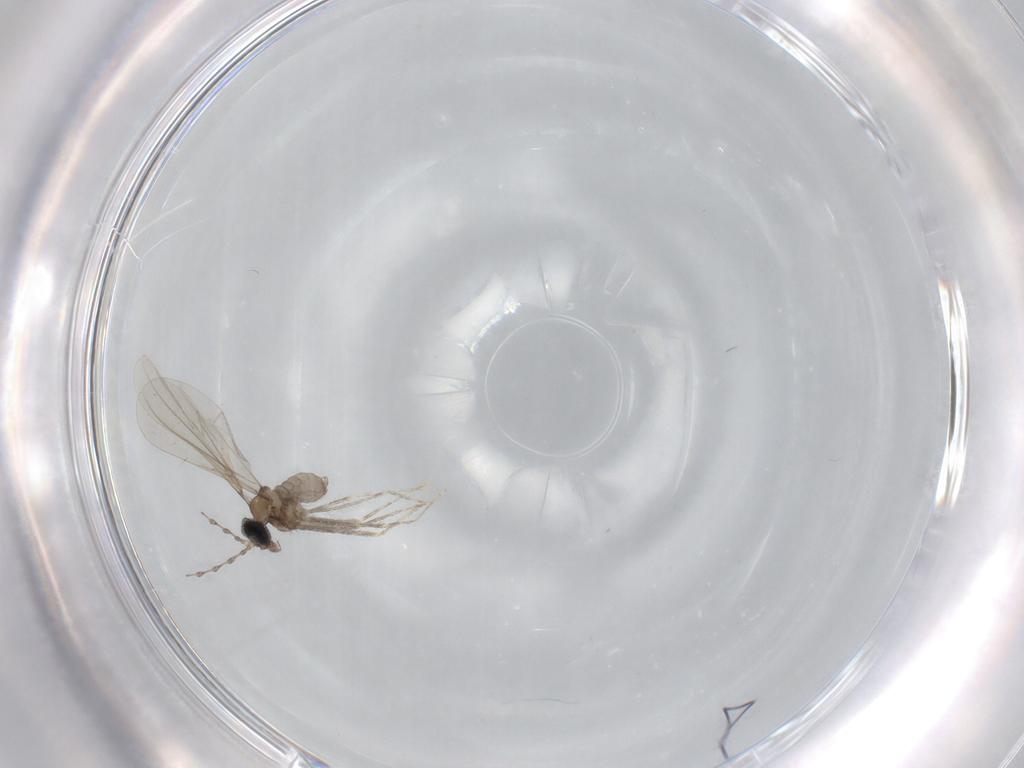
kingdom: Animalia
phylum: Arthropoda
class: Insecta
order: Diptera
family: Cecidomyiidae
